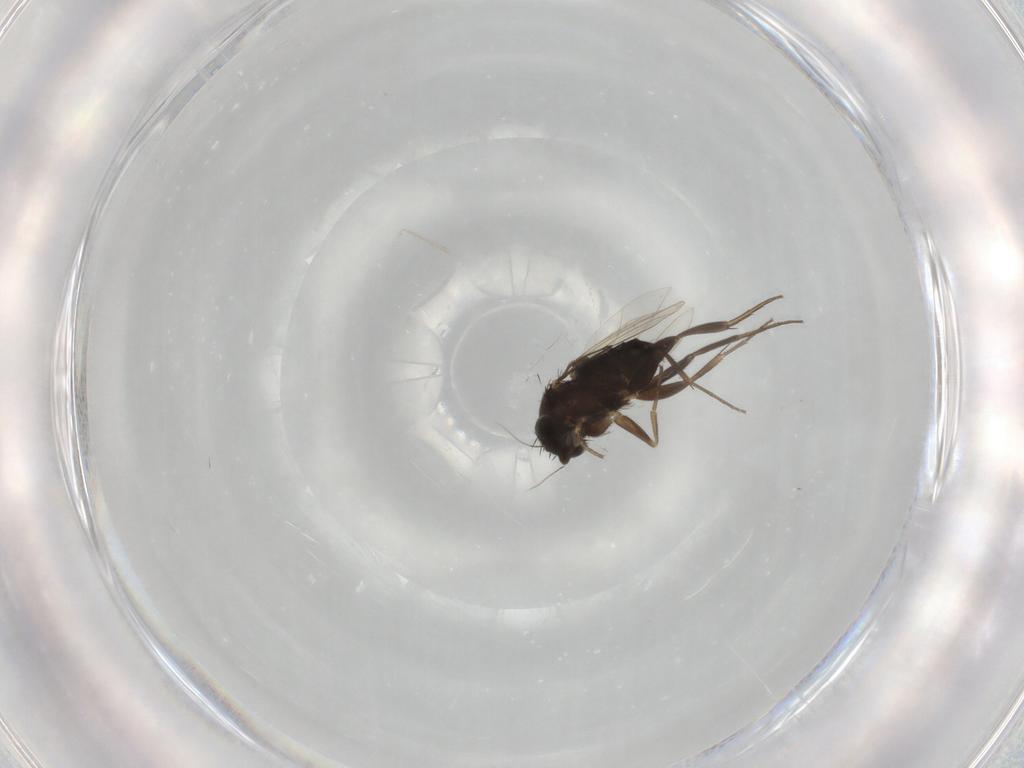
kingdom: Animalia
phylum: Arthropoda
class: Insecta
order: Diptera
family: Phoridae
